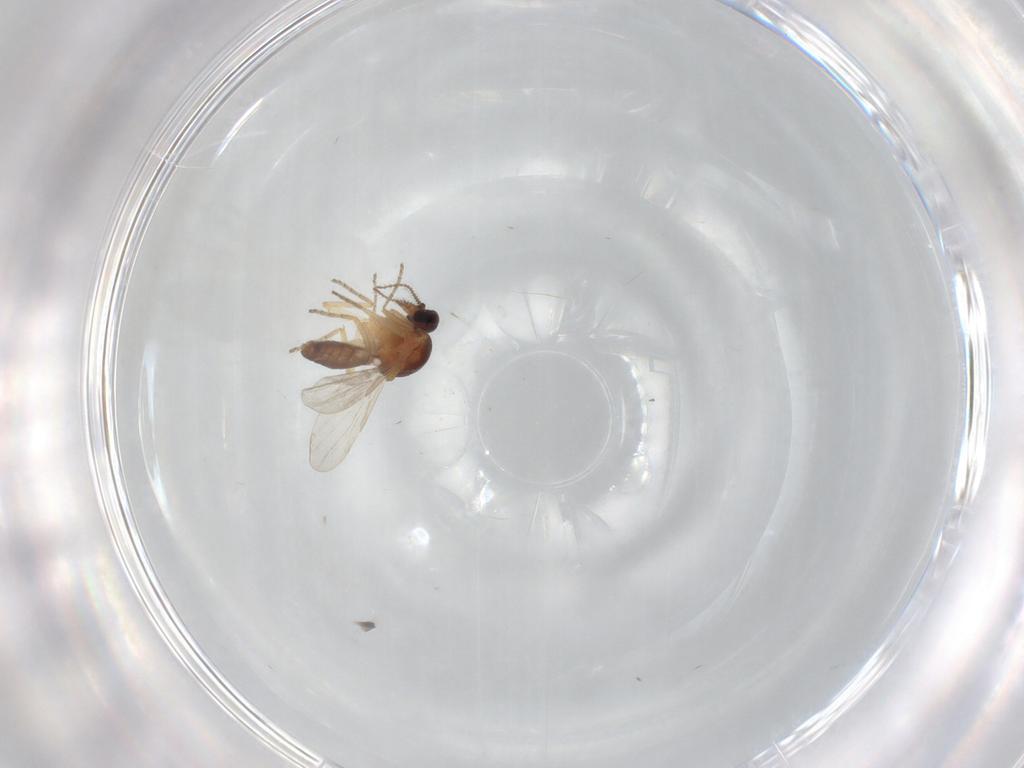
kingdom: Animalia
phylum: Arthropoda
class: Insecta
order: Diptera
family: Ceratopogonidae
